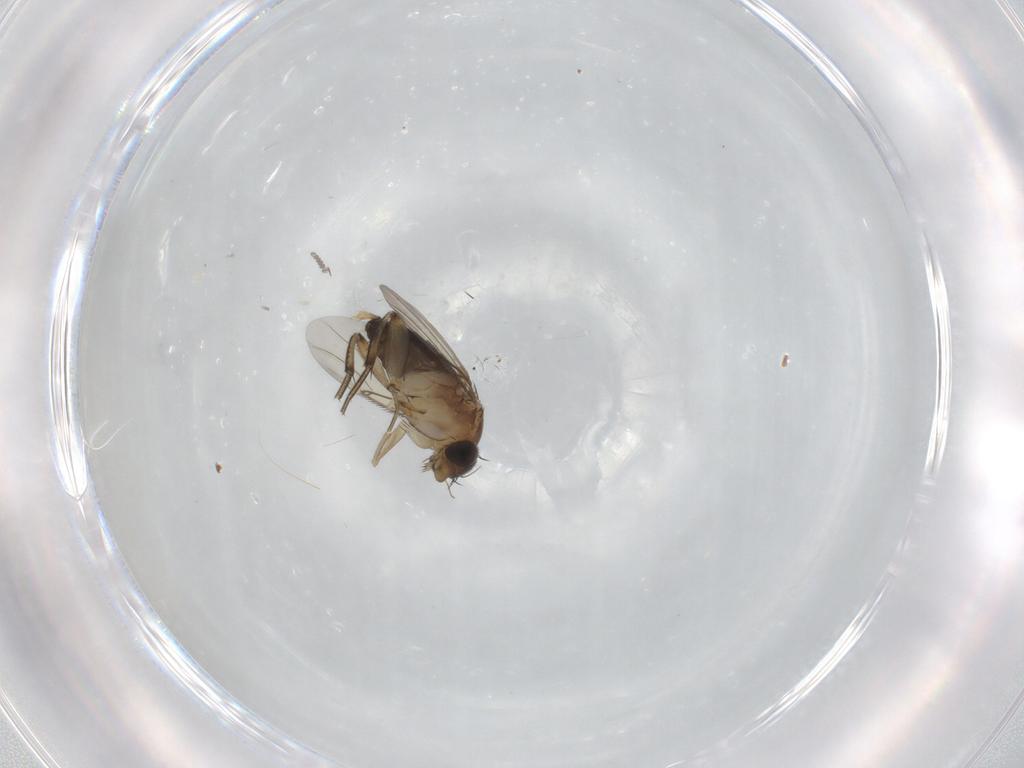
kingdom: Animalia
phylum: Arthropoda
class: Insecta
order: Diptera
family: Psychodidae
